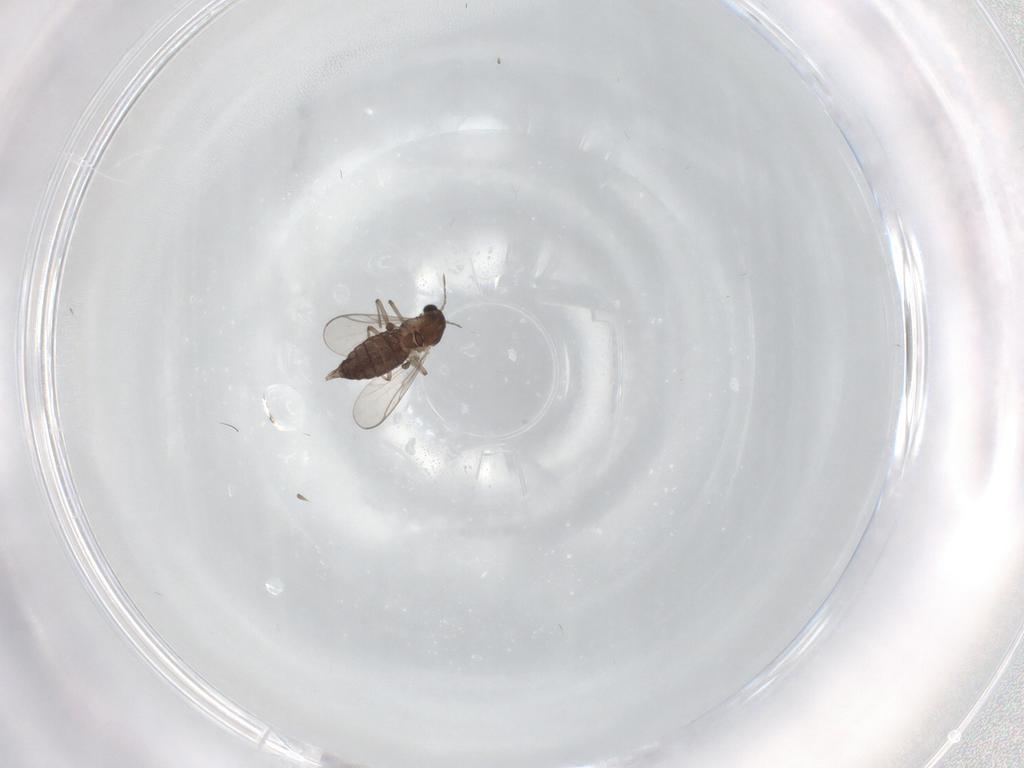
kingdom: Animalia
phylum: Arthropoda
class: Insecta
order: Diptera
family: Chironomidae
